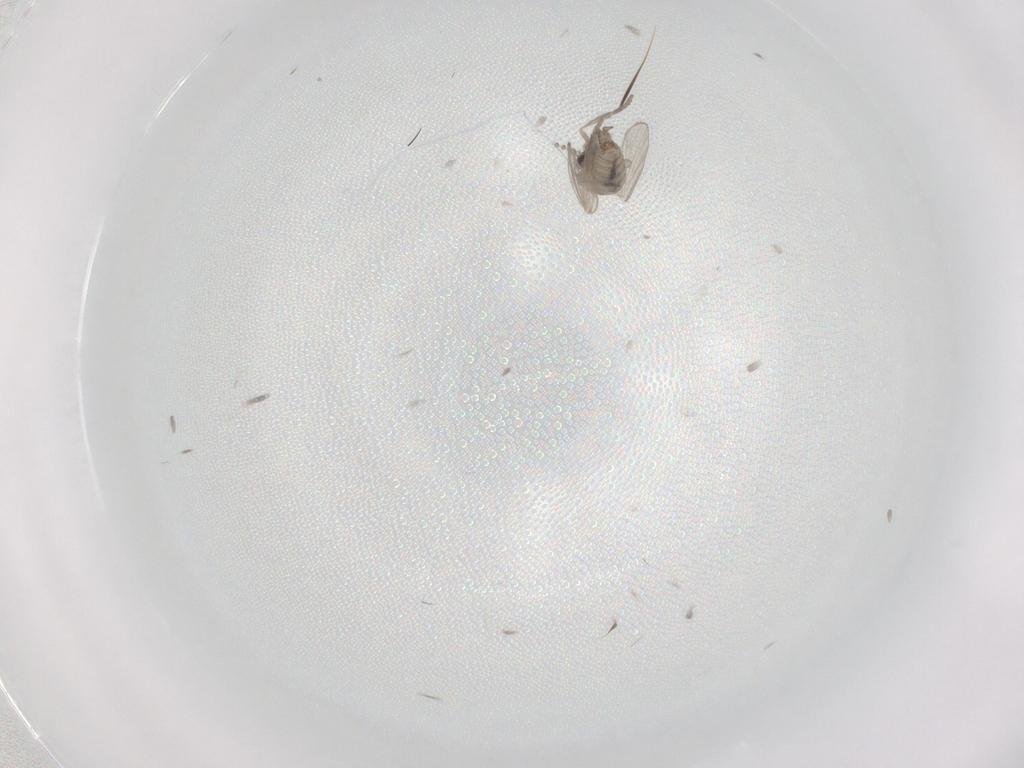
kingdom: Animalia
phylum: Arthropoda
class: Insecta
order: Diptera
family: Psychodidae
